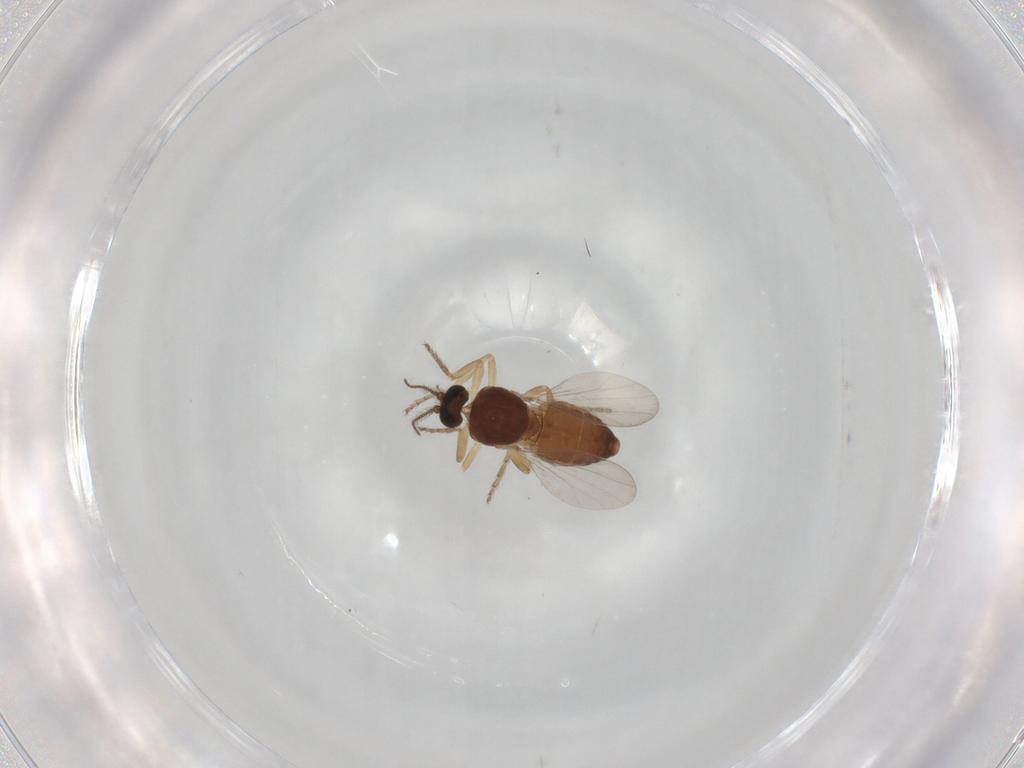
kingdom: Animalia
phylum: Arthropoda
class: Insecta
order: Diptera
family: Ceratopogonidae
